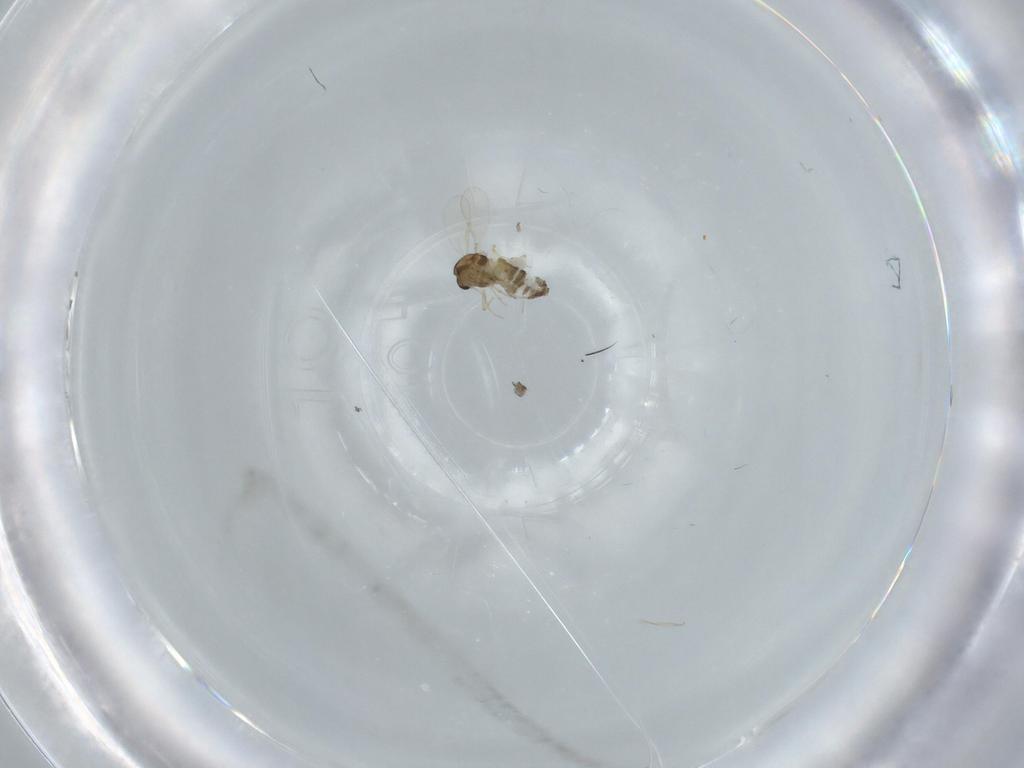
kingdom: Animalia
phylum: Arthropoda
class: Insecta
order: Diptera
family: Chironomidae
